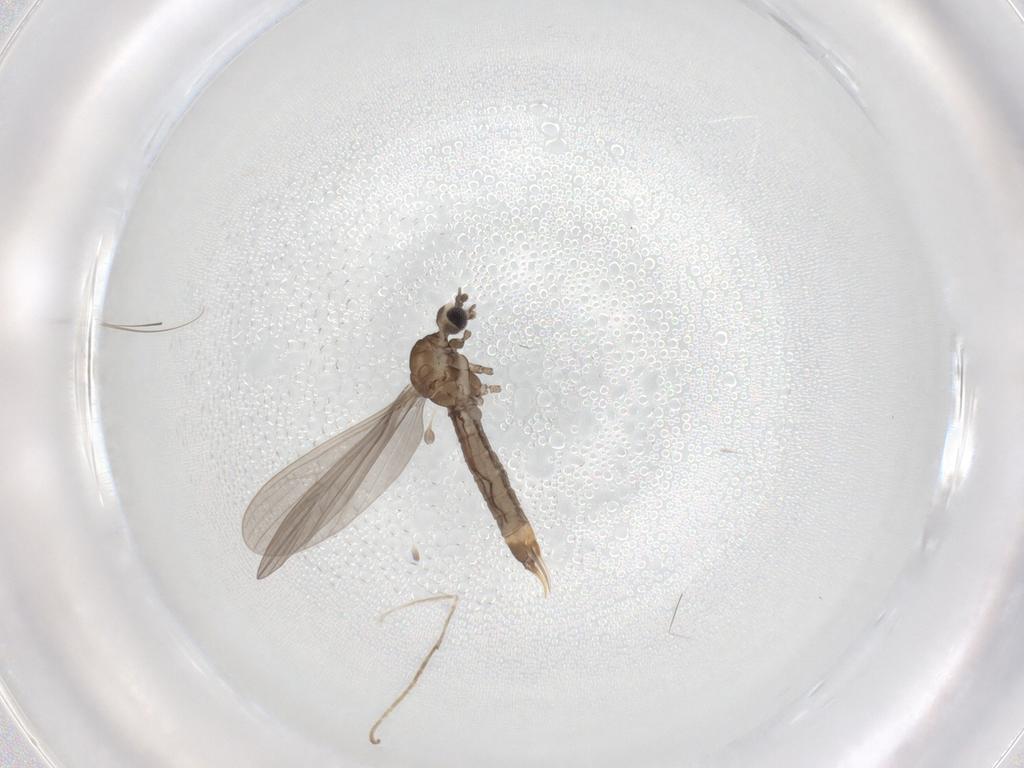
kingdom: Animalia
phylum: Arthropoda
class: Insecta
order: Diptera
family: Limoniidae
